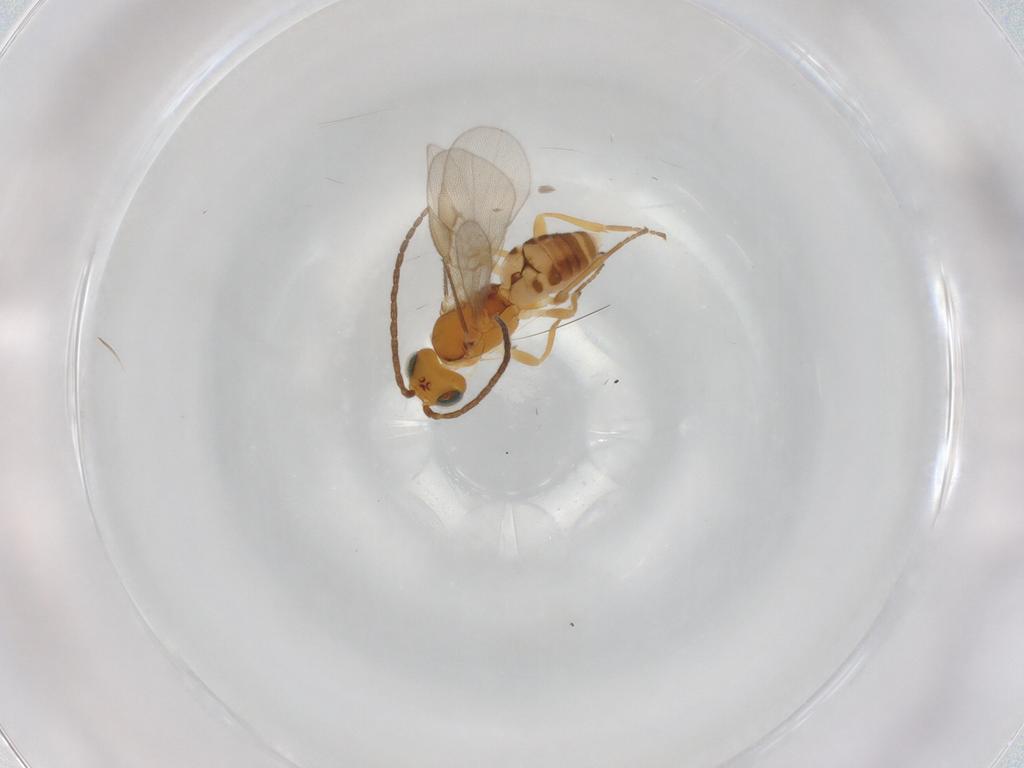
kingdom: Animalia
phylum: Arthropoda
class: Insecta
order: Hymenoptera
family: Braconidae
